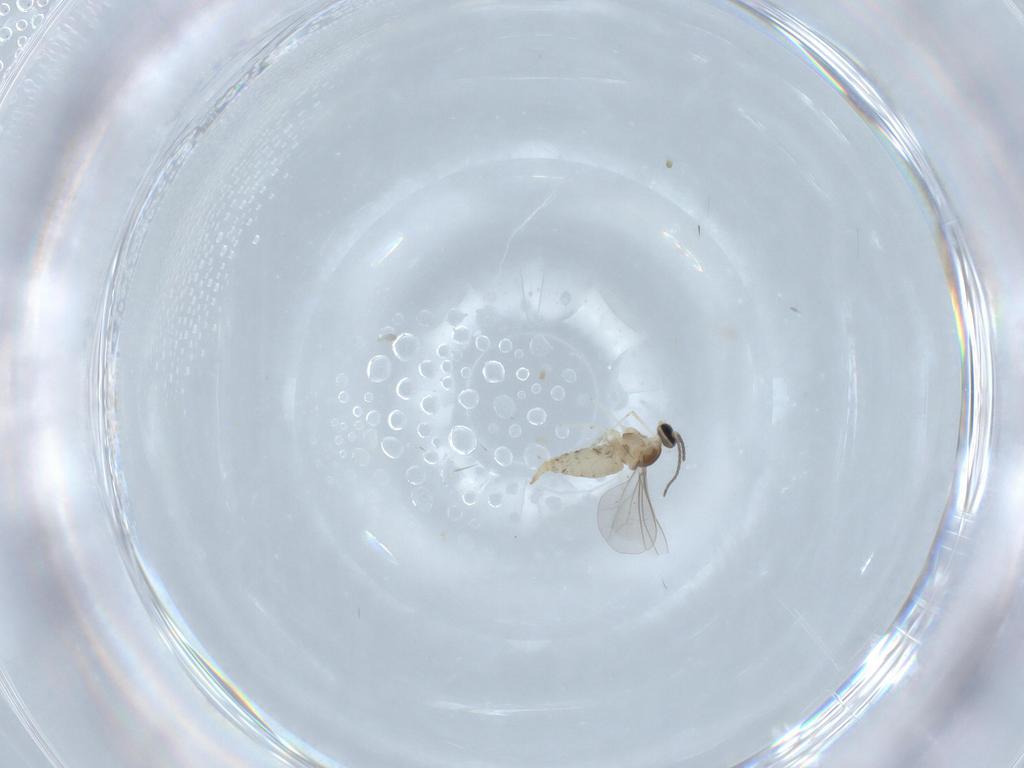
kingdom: Animalia
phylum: Arthropoda
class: Insecta
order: Diptera
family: Cecidomyiidae
